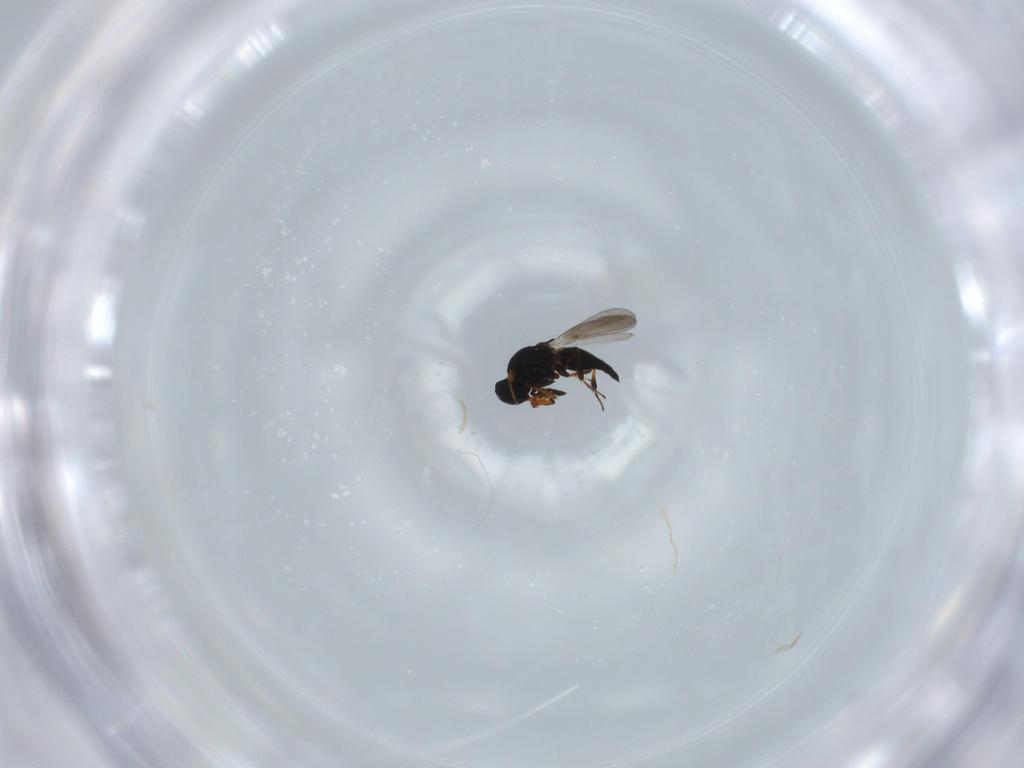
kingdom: Animalia
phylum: Arthropoda
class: Insecta
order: Hymenoptera
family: Platygastridae
